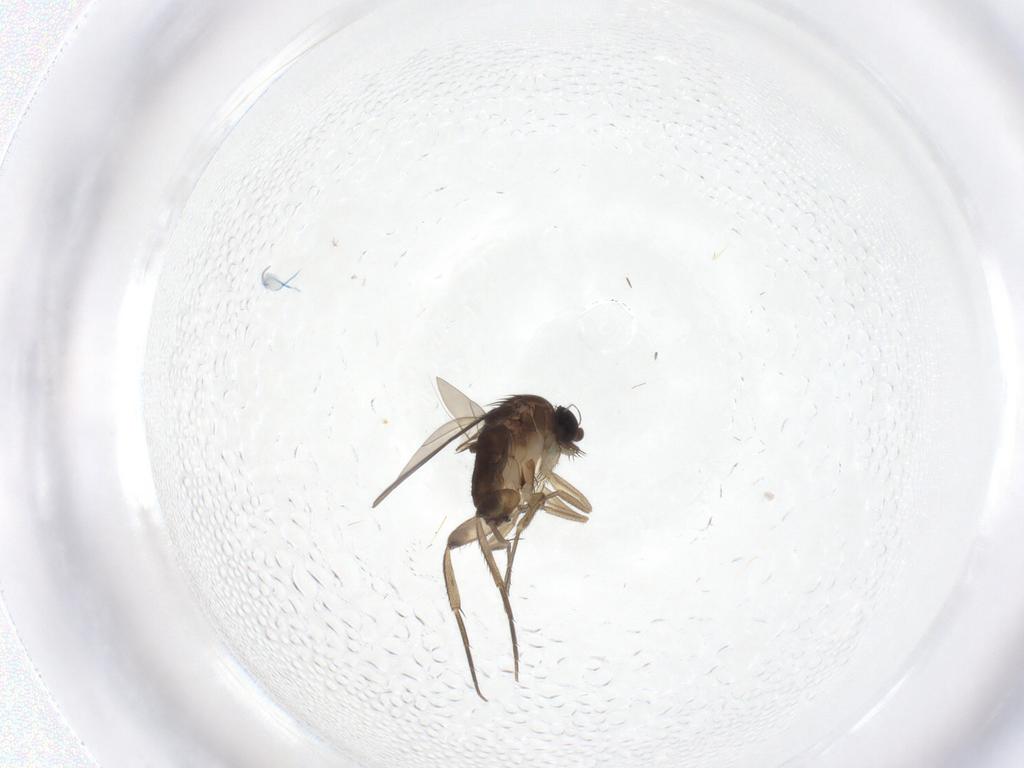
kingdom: Animalia
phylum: Arthropoda
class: Insecta
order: Diptera
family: Phoridae
